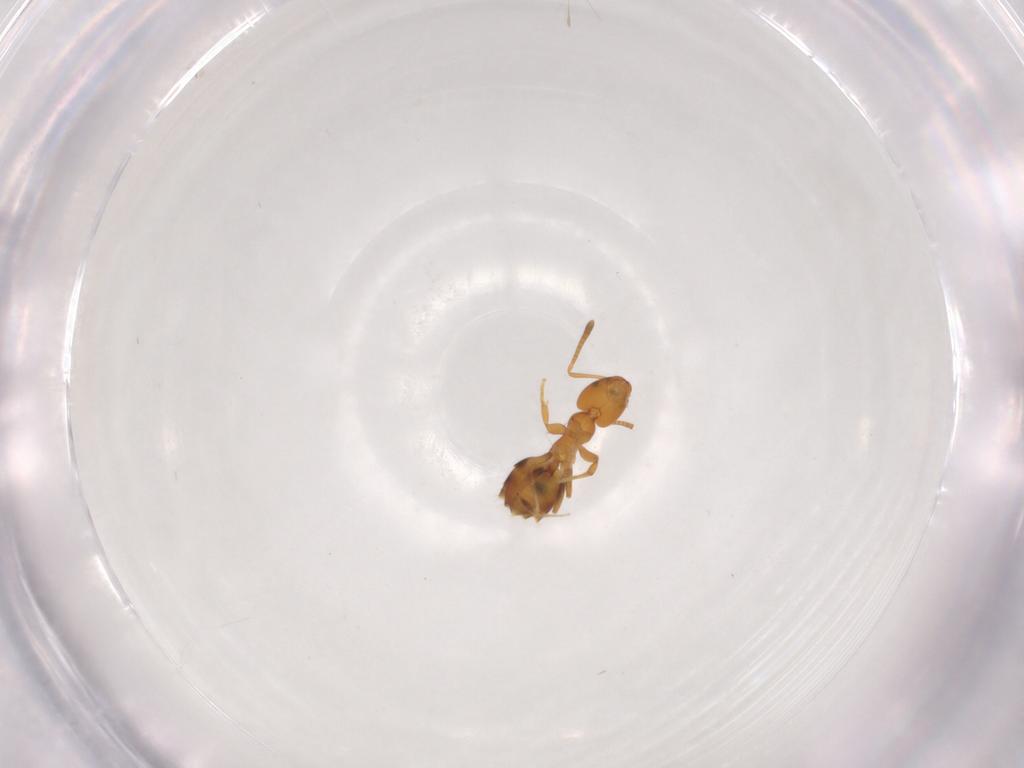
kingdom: Animalia
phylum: Arthropoda
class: Insecta
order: Hymenoptera
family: Formicidae
